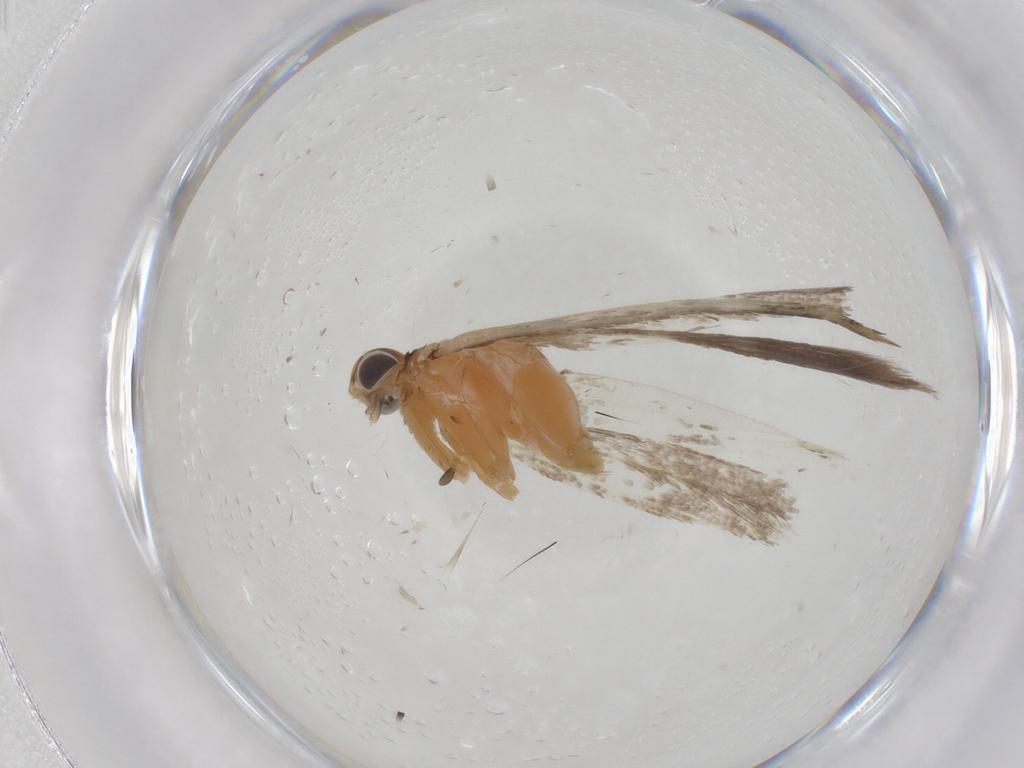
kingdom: Animalia
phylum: Arthropoda
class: Insecta
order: Lepidoptera
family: Gelechiidae
